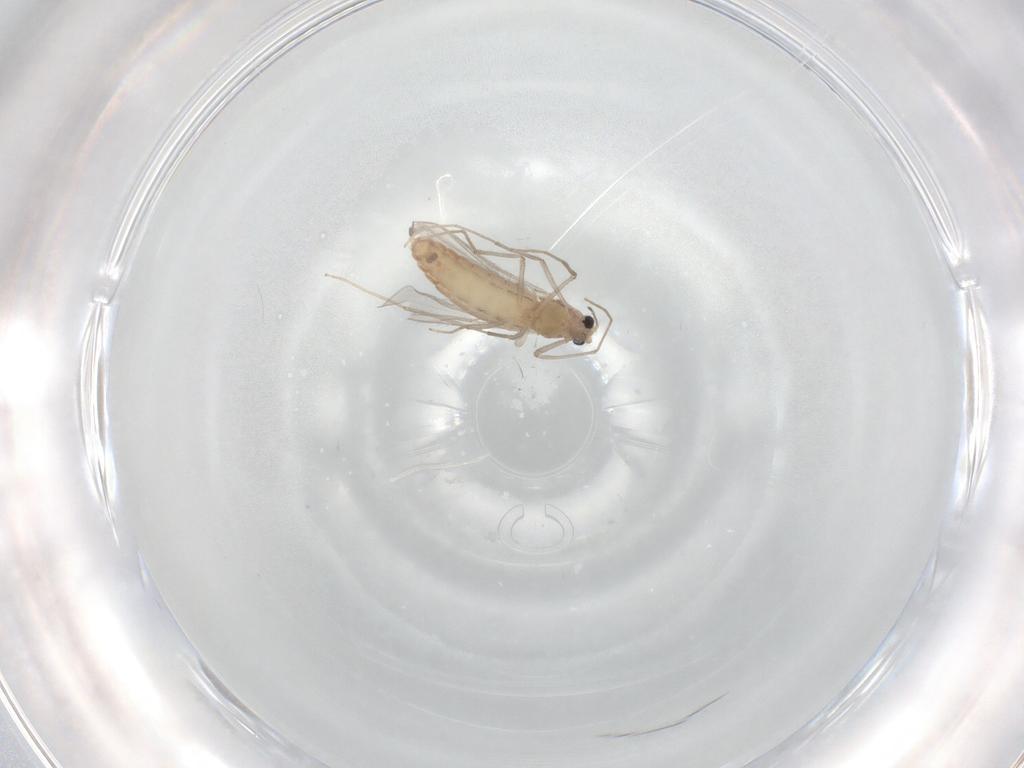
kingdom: Animalia
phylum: Arthropoda
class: Insecta
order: Diptera
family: Chironomidae
